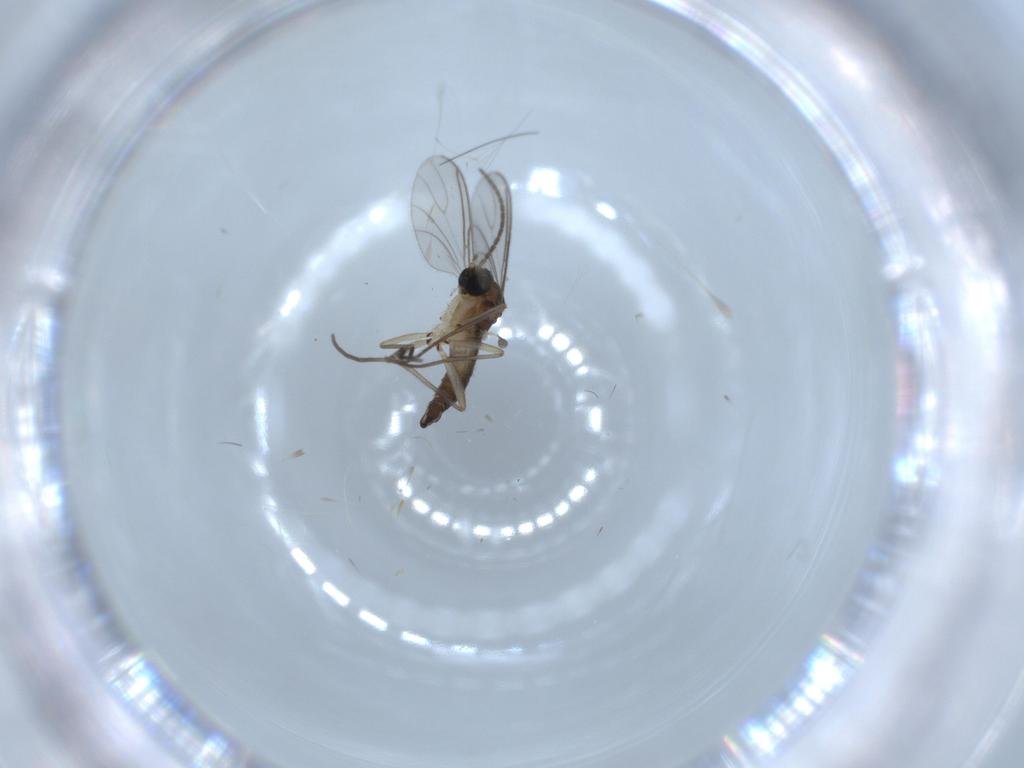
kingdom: Animalia
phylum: Arthropoda
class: Insecta
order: Diptera
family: Sciaridae
